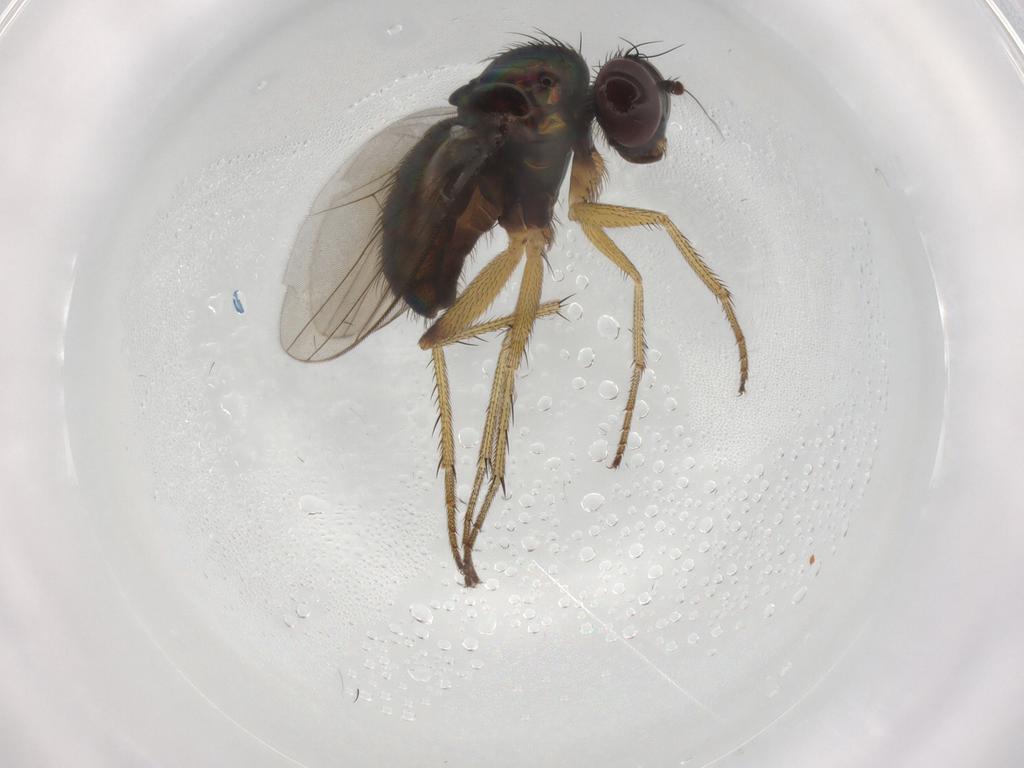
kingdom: Animalia
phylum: Arthropoda
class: Insecta
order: Diptera
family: Dolichopodidae
